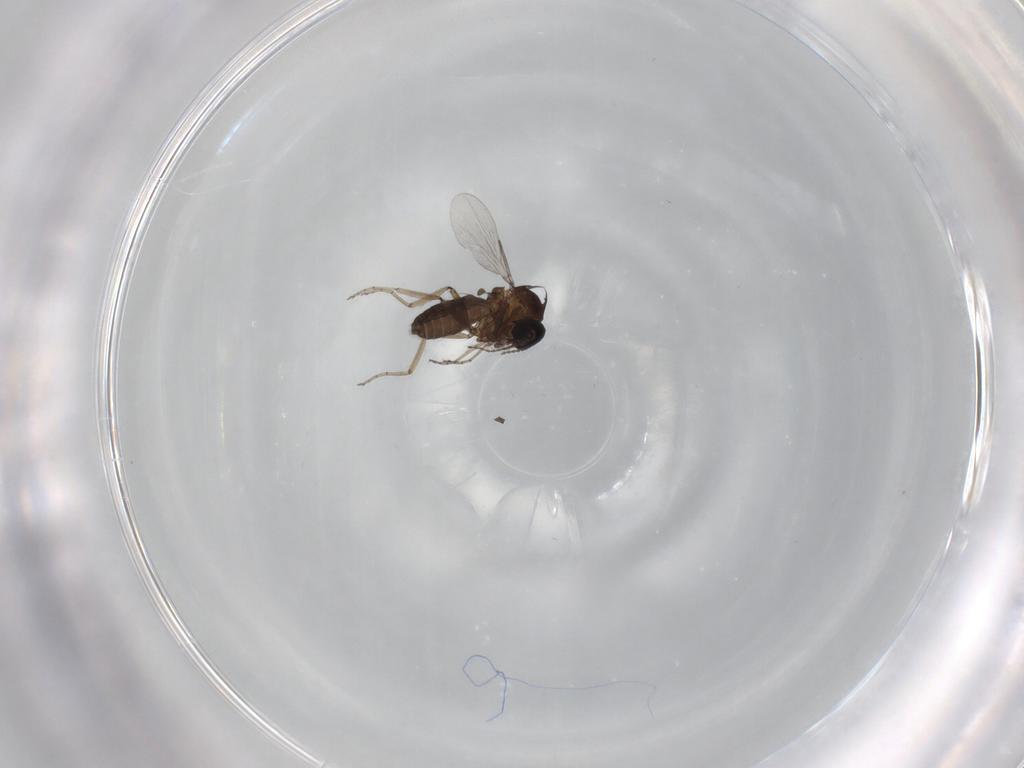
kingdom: Animalia
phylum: Arthropoda
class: Insecta
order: Diptera
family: Ceratopogonidae
